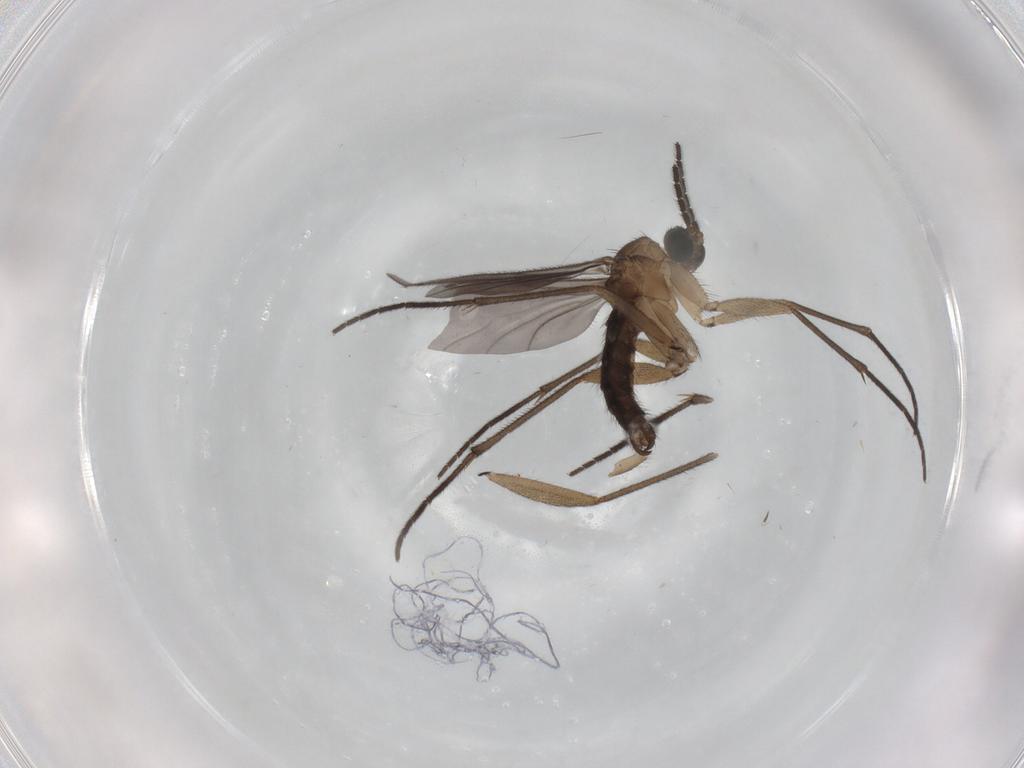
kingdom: Animalia
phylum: Arthropoda
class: Insecta
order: Diptera
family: Sciaridae
